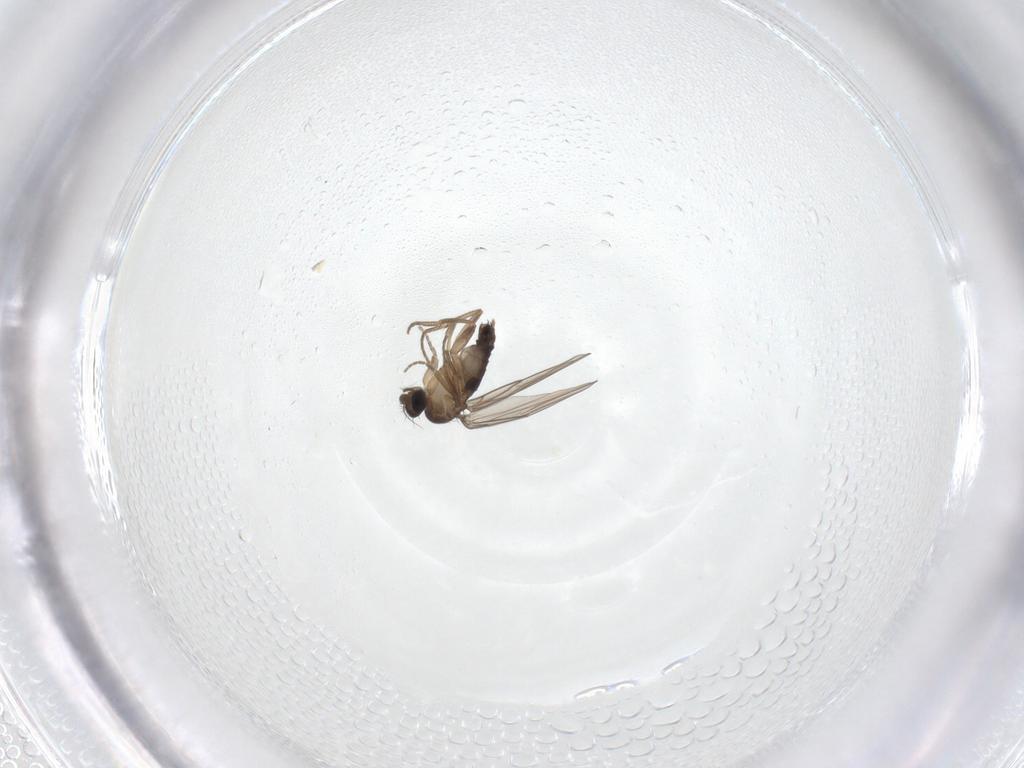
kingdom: Animalia
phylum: Arthropoda
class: Insecta
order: Diptera
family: Phoridae
